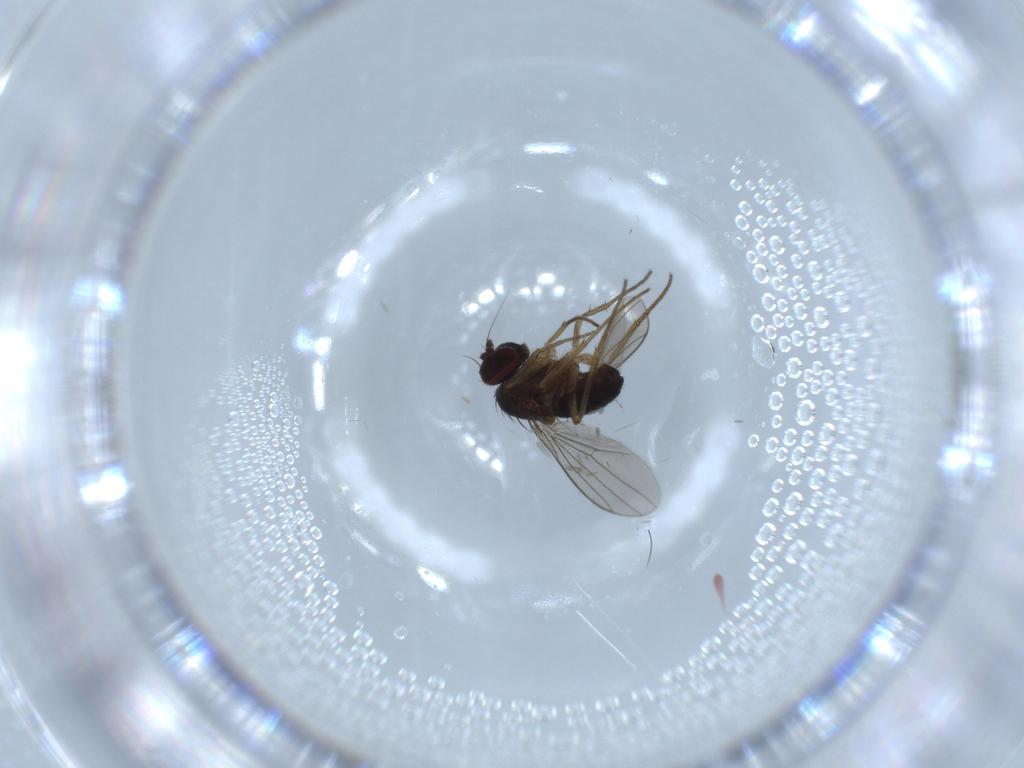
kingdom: Animalia
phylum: Arthropoda
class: Insecta
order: Diptera
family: Dolichopodidae
